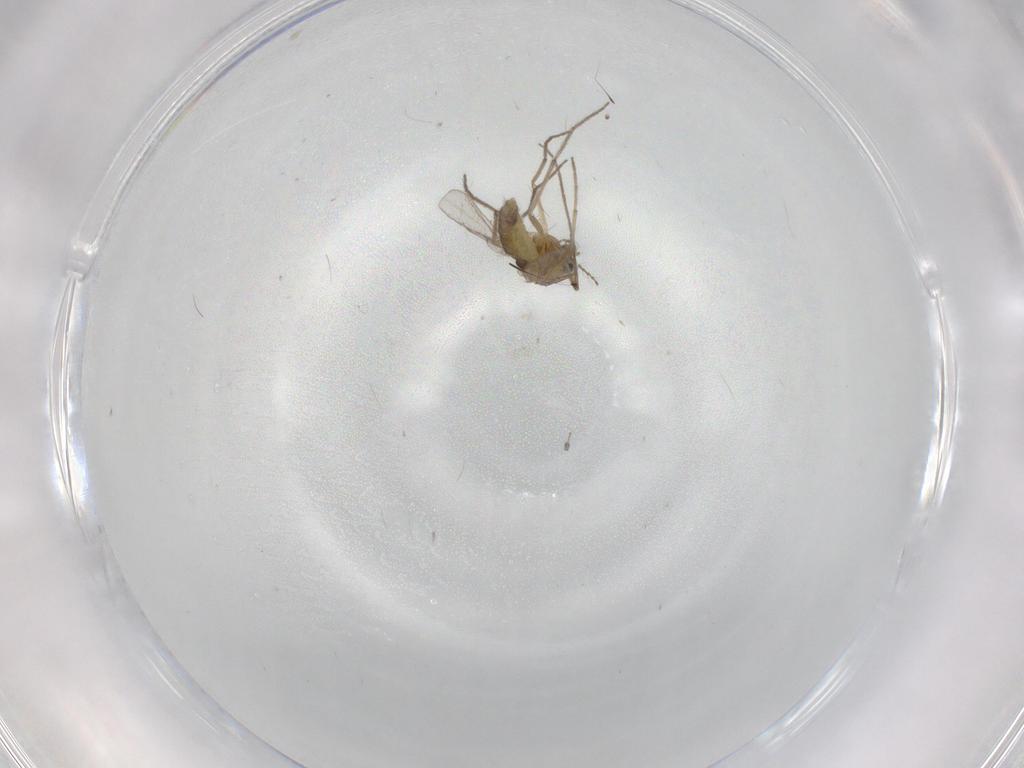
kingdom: Animalia
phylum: Arthropoda
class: Insecta
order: Diptera
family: Chironomidae
